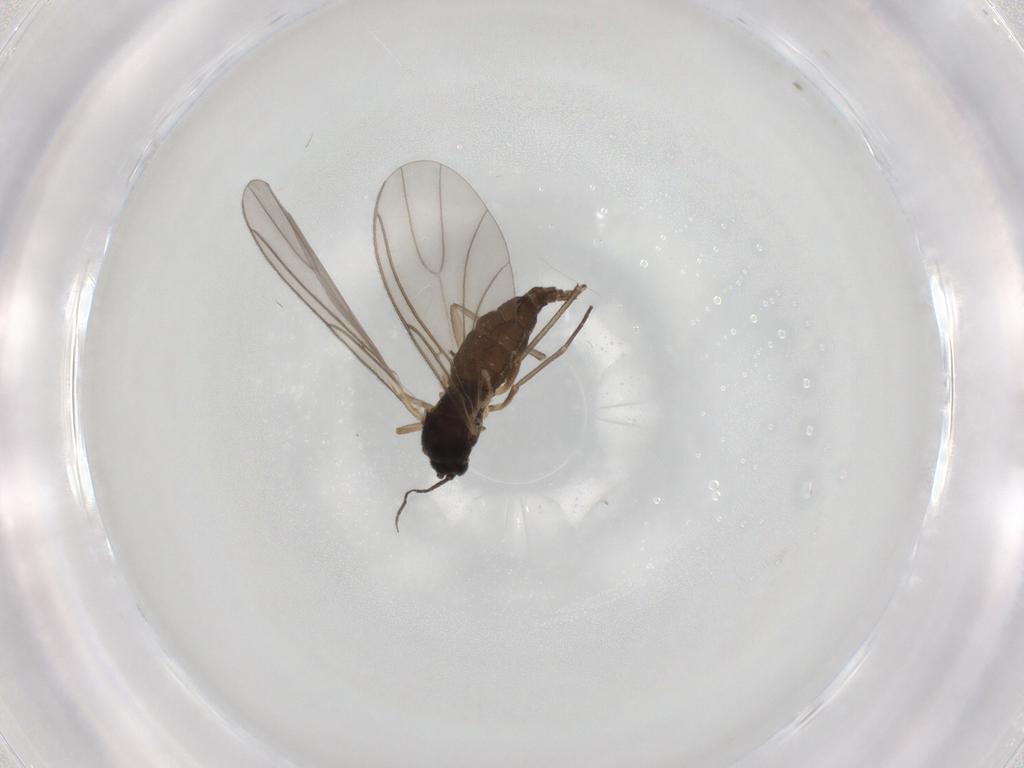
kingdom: Animalia
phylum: Arthropoda
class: Insecta
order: Diptera
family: Sciaridae
